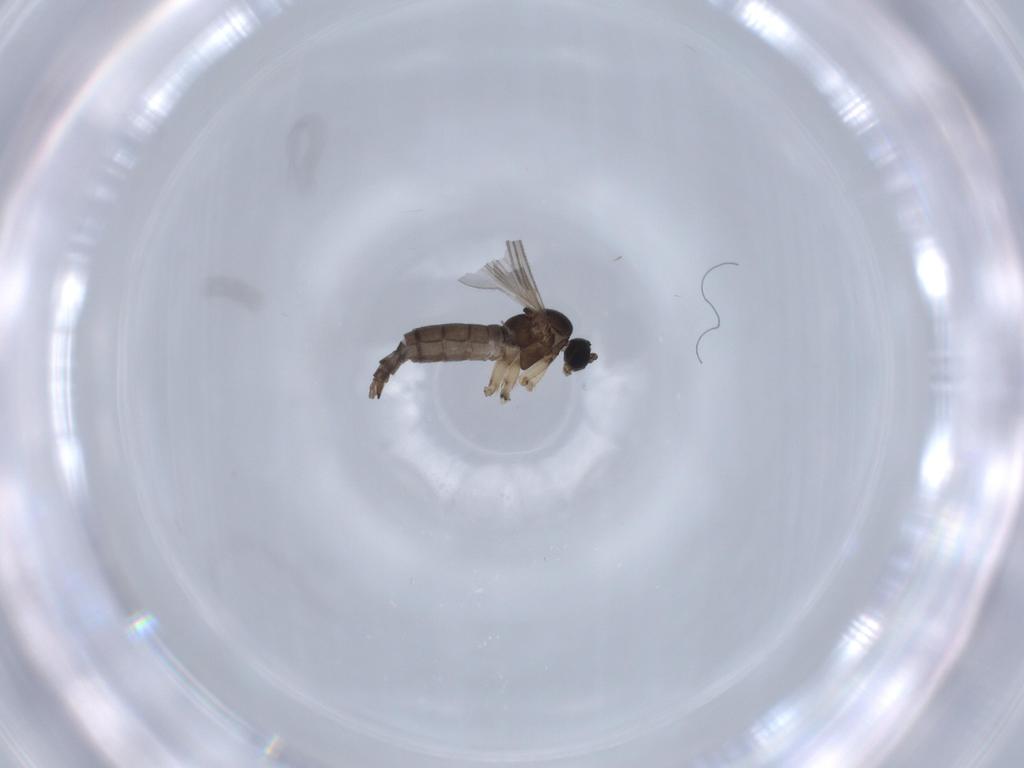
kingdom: Animalia
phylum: Arthropoda
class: Insecta
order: Diptera
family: Sciaridae
